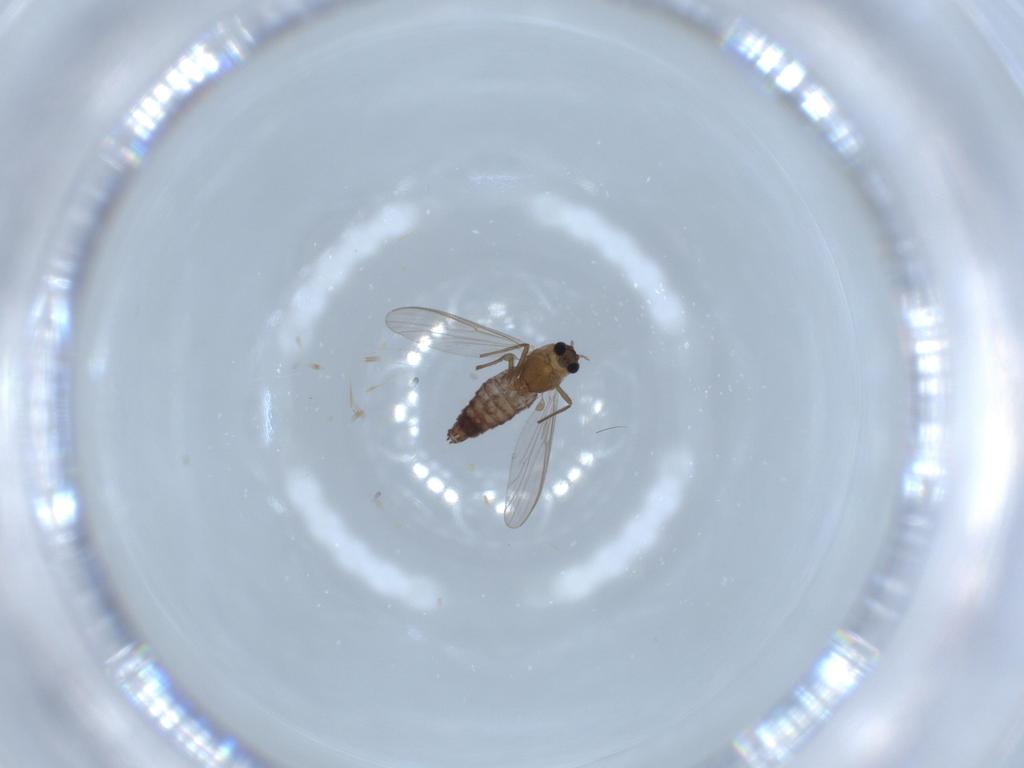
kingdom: Animalia
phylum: Arthropoda
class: Insecta
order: Diptera
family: Chironomidae
